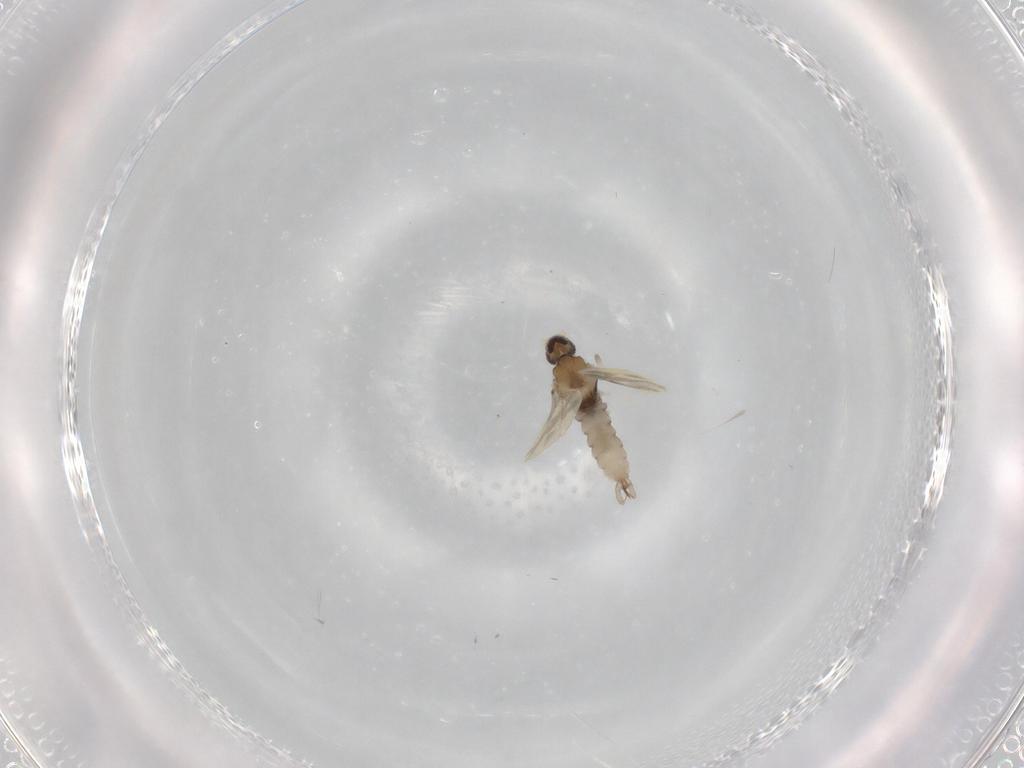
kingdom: Animalia
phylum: Arthropoda
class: Insecta
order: Diptera
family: Cecidomyiidae
